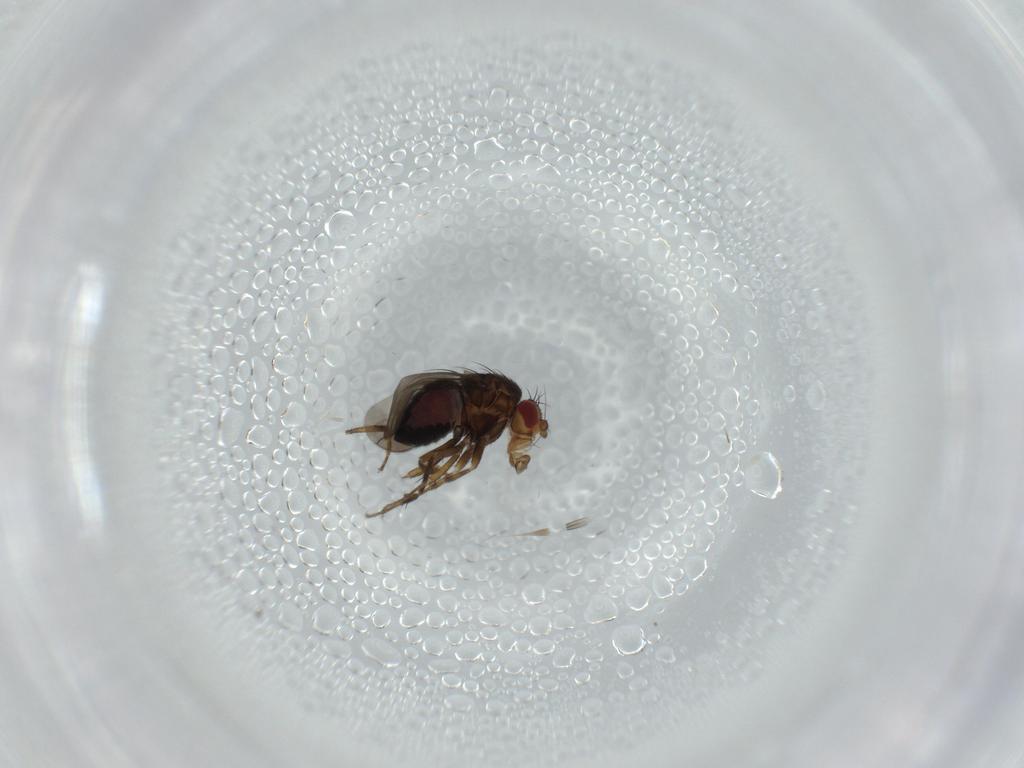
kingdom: Animalia
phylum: Arthropoda
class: Insecta
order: Diptera
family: Sphaeroceridae
